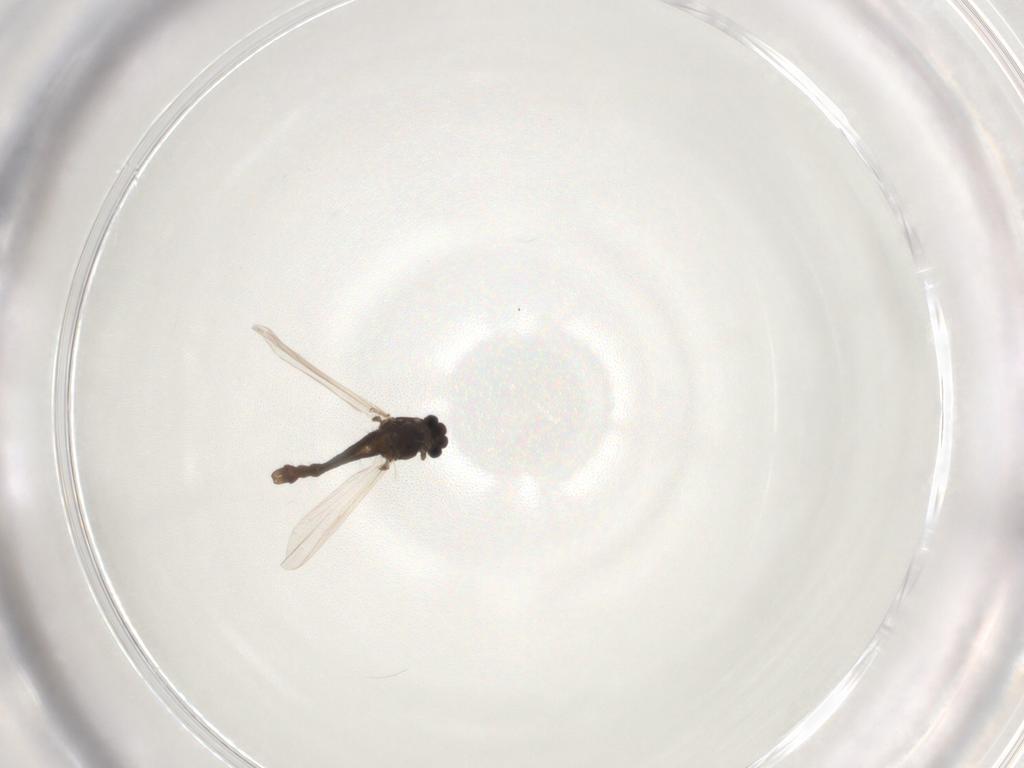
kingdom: Animalia
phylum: Arthropoda
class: Insecta
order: Diptera
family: Chironomidae
